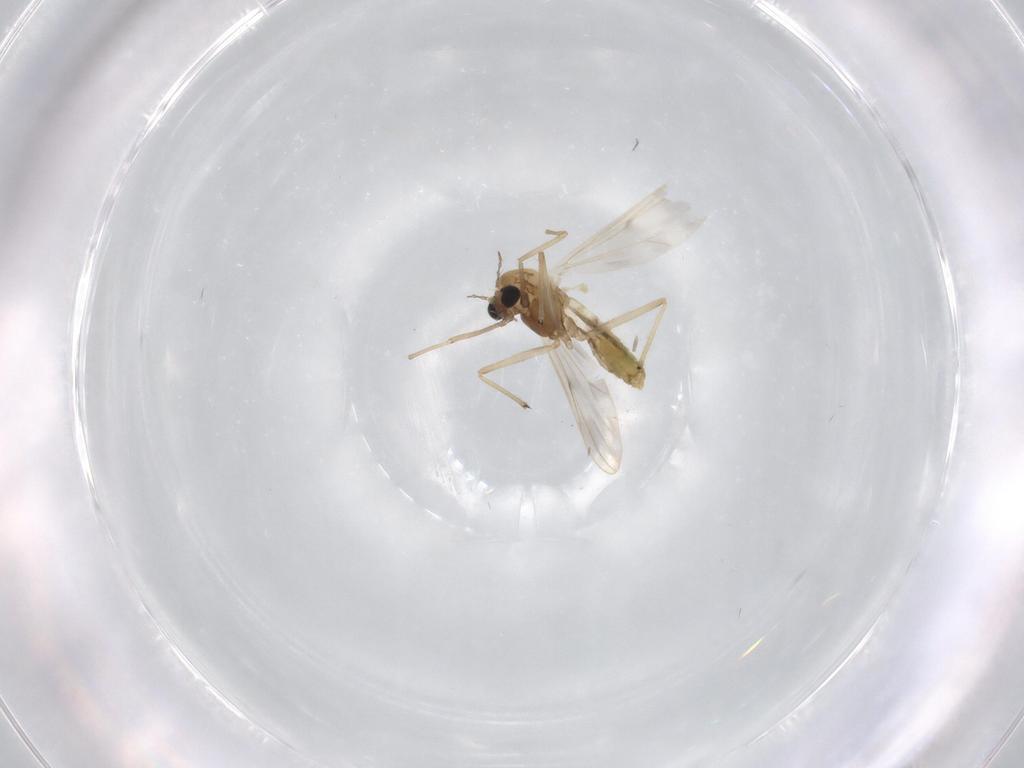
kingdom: Animalia
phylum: Arthropoda
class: Insecta
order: Diptera
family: Chironomidae
